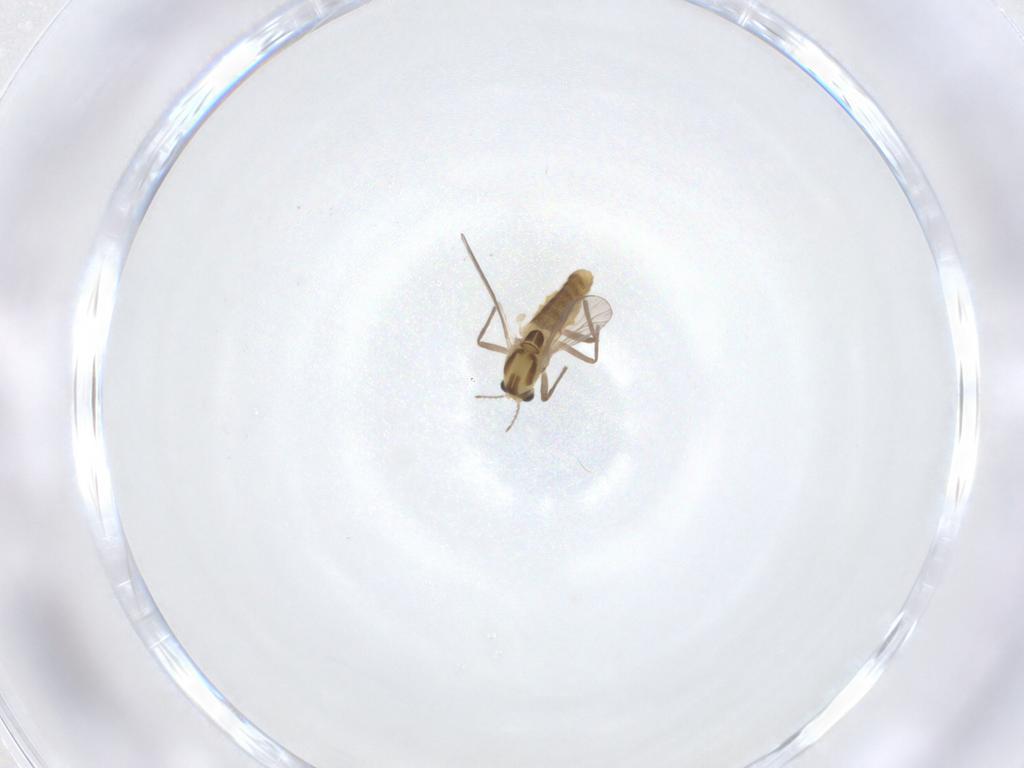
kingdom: Animalia
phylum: Arthropoda
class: Insecta
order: Diptera
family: Chironomidae
